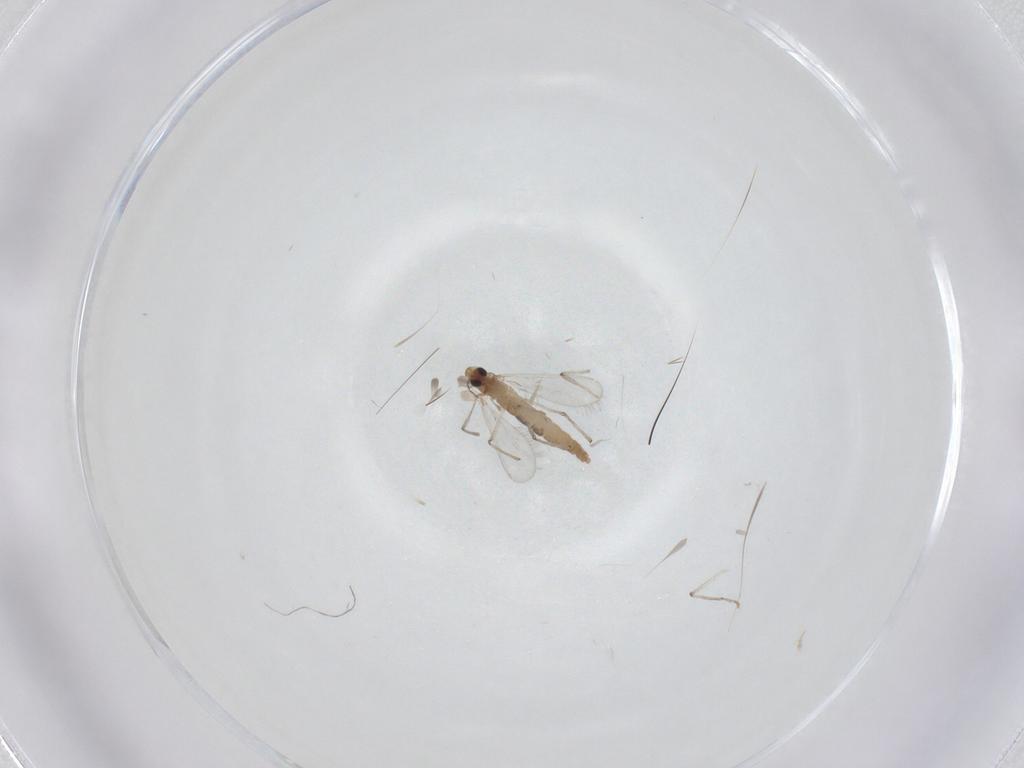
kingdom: Animalia
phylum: Arthropoda
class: Insecta
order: Diptera
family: Chironomidae
